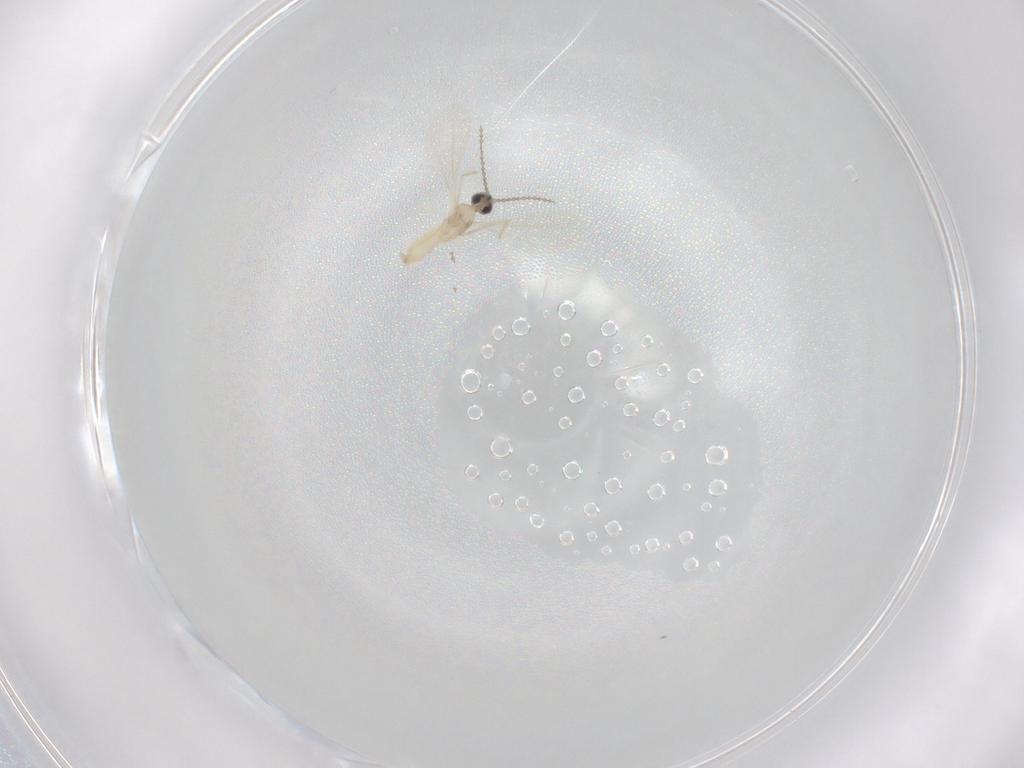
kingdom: Animalia
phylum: Arthropoda
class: Insecta
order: Diptera
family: Cecidomyiidae
